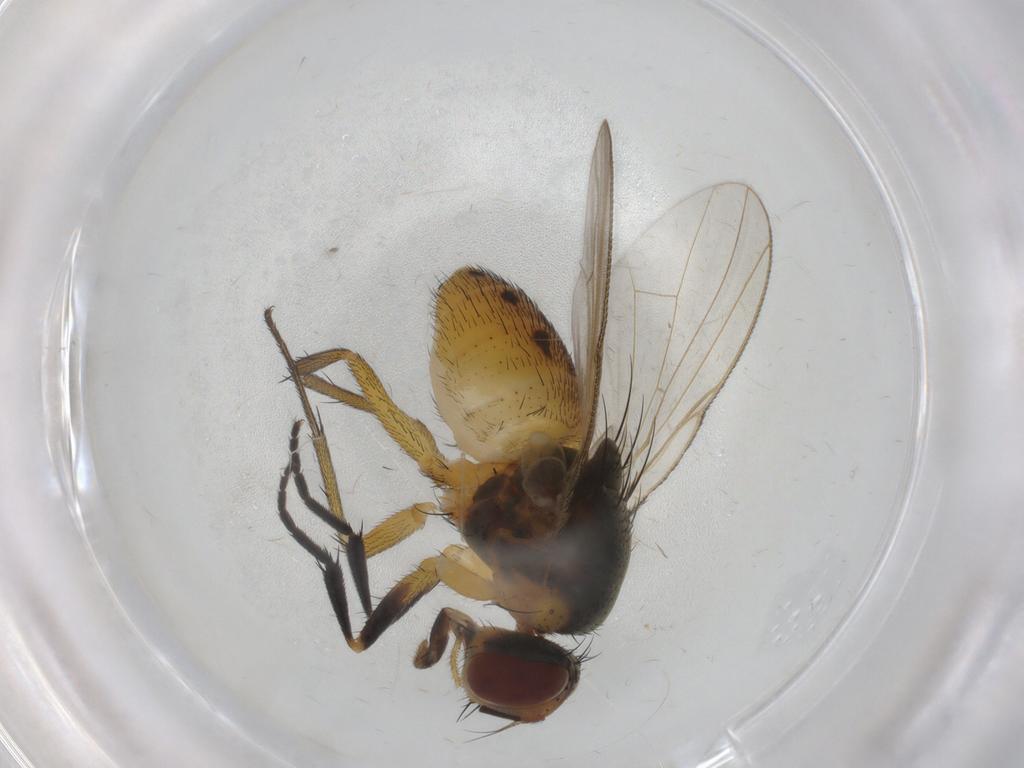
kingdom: Animalia
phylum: Arthropoda
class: Insecta
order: Diptera
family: Muscidae
